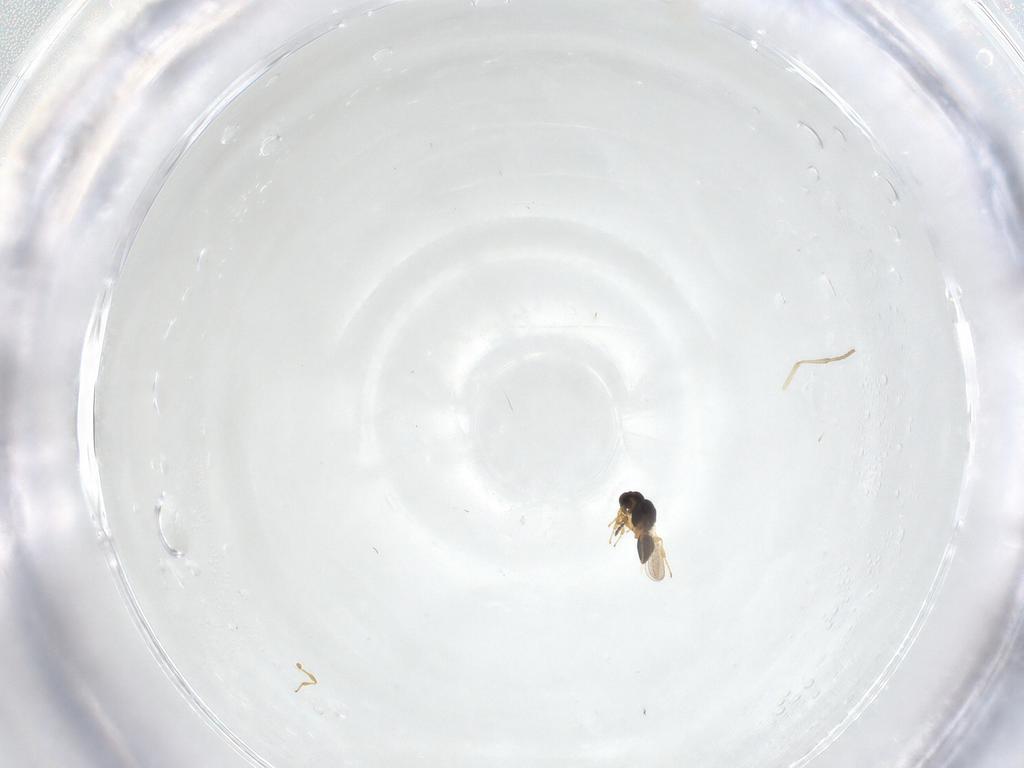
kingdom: Animalia
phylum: Arthropoda
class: Insecta
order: Hymenoptera
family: Platygastridae
